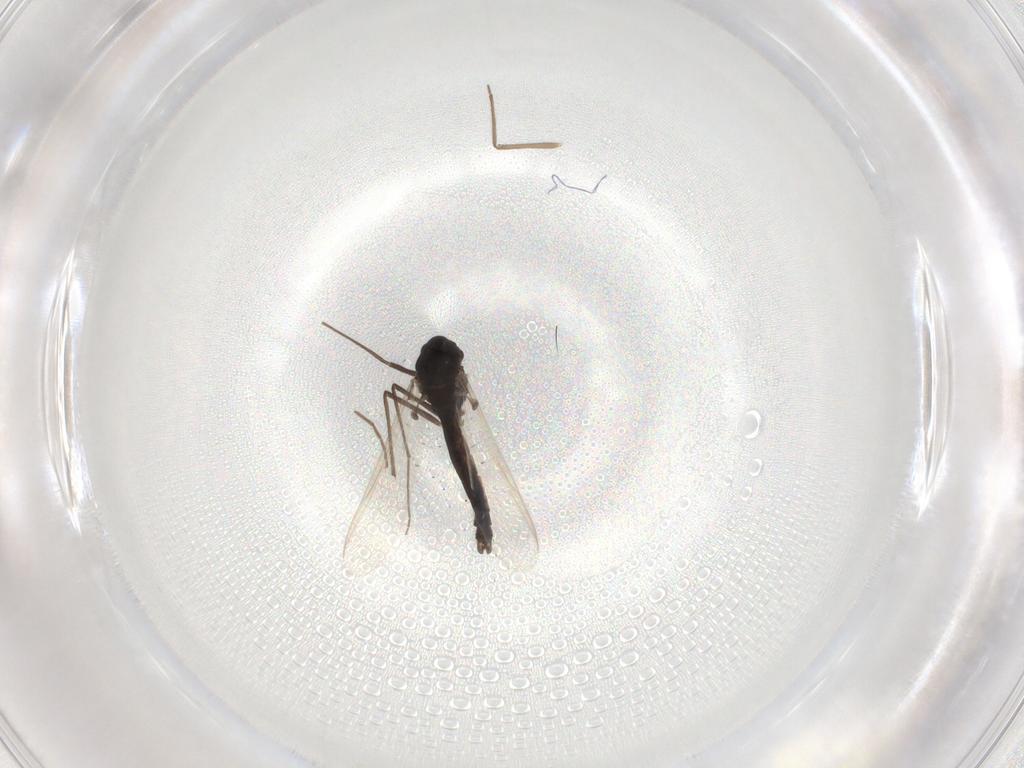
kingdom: Animalia
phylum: Arthropoda
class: Insecta
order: Diptera
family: Chironomidae
